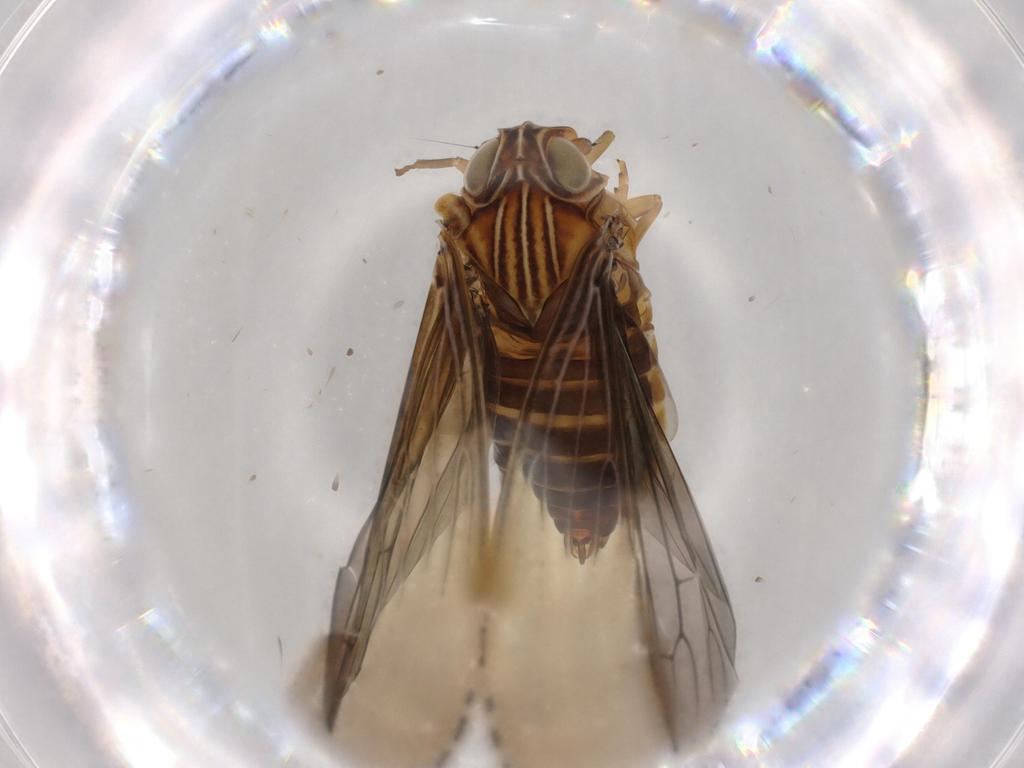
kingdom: Animalia
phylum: Arthropoda
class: Insecta
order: Hemiptera
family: Achilidae
